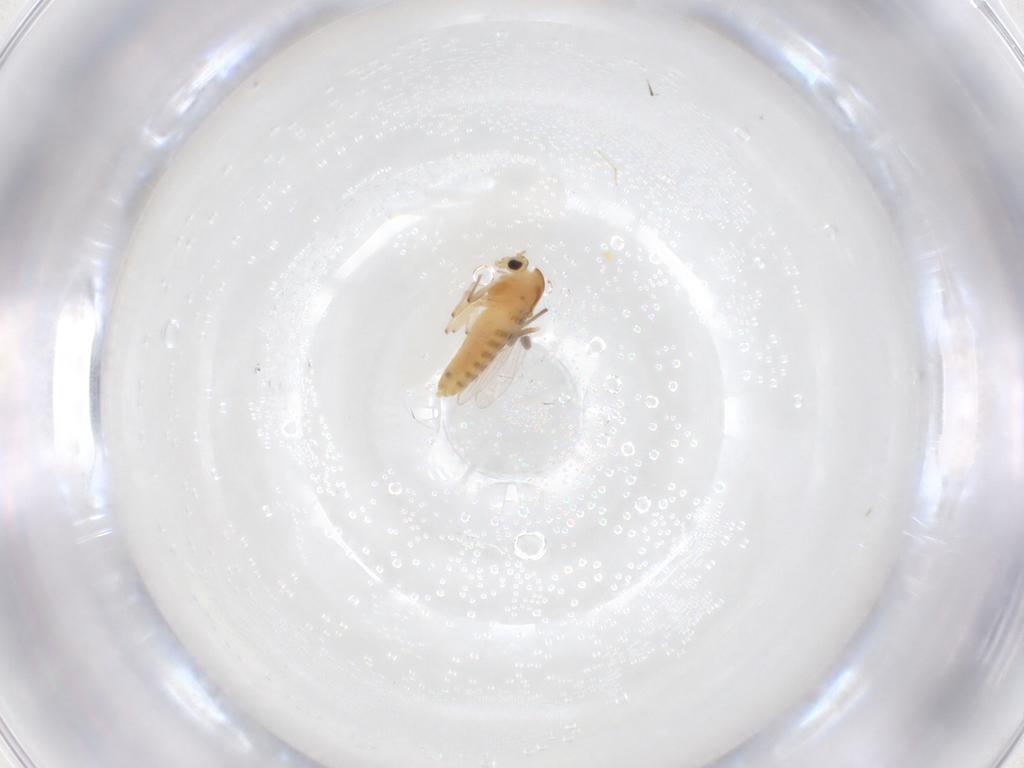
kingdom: Animalia
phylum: Arthropoda
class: Insecta
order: Diptera
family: Chironomidae
